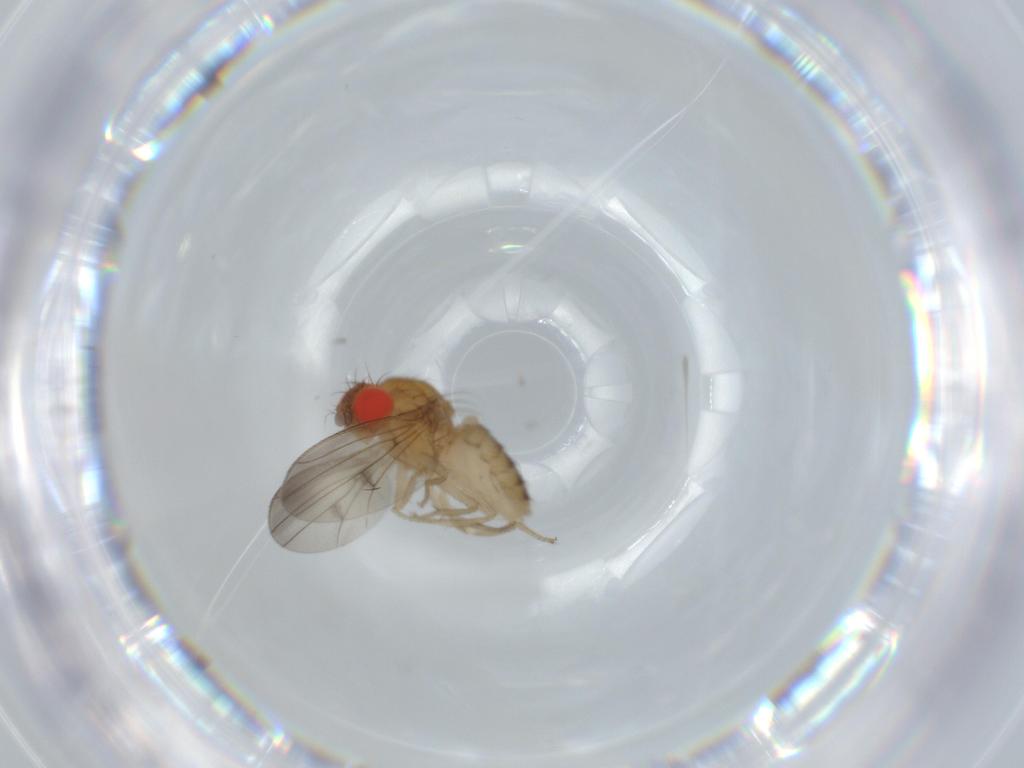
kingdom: Animalia
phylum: Arthropoda
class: Insecta
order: Diptera
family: Drosophilidae
